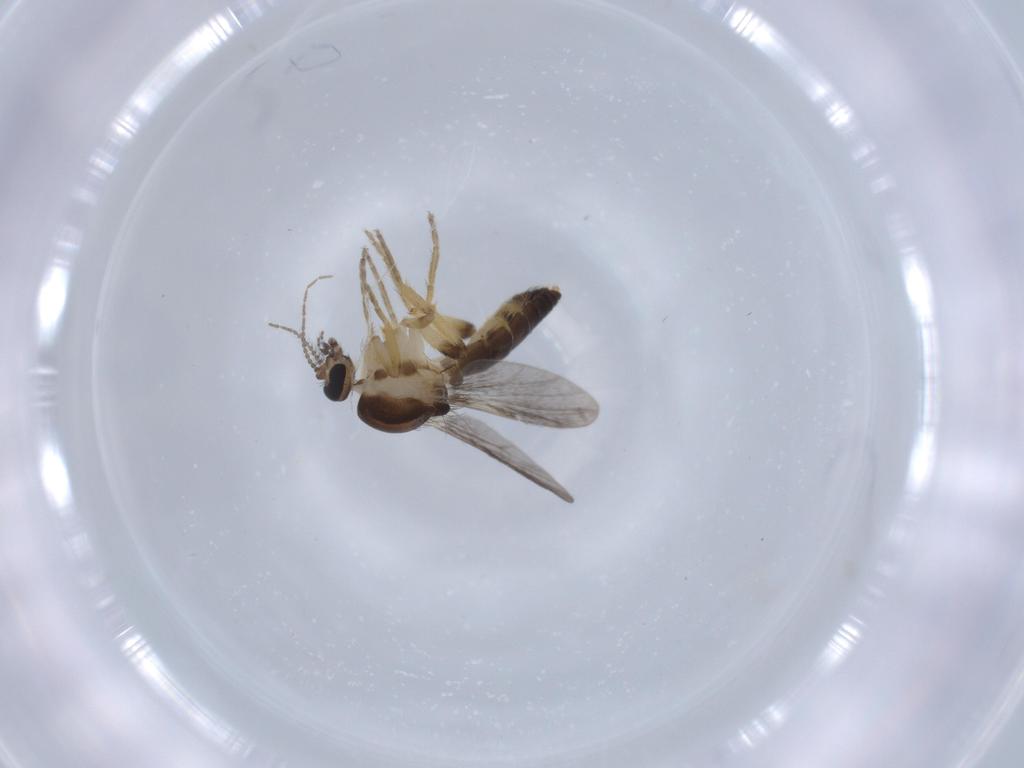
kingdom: Animalia
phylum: Arthropoda
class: Insecta
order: Diptera
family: Ceratopogonidae
